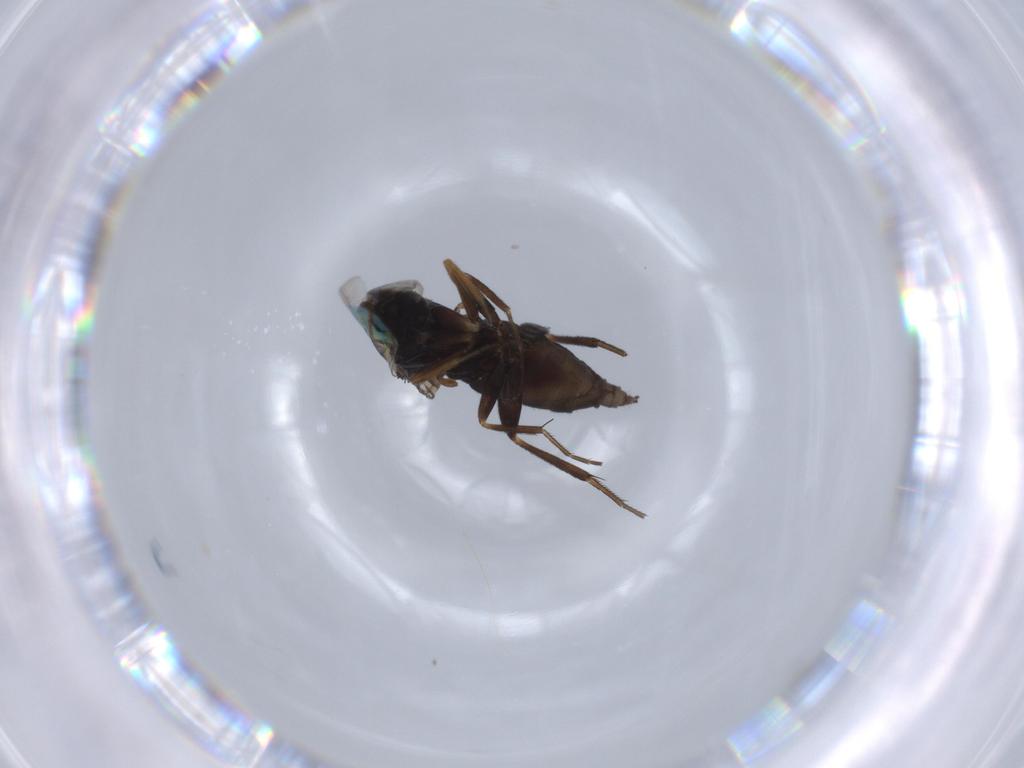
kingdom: Animalia
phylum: Arthropoda
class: Insecta
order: Diptera
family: Phoridae
